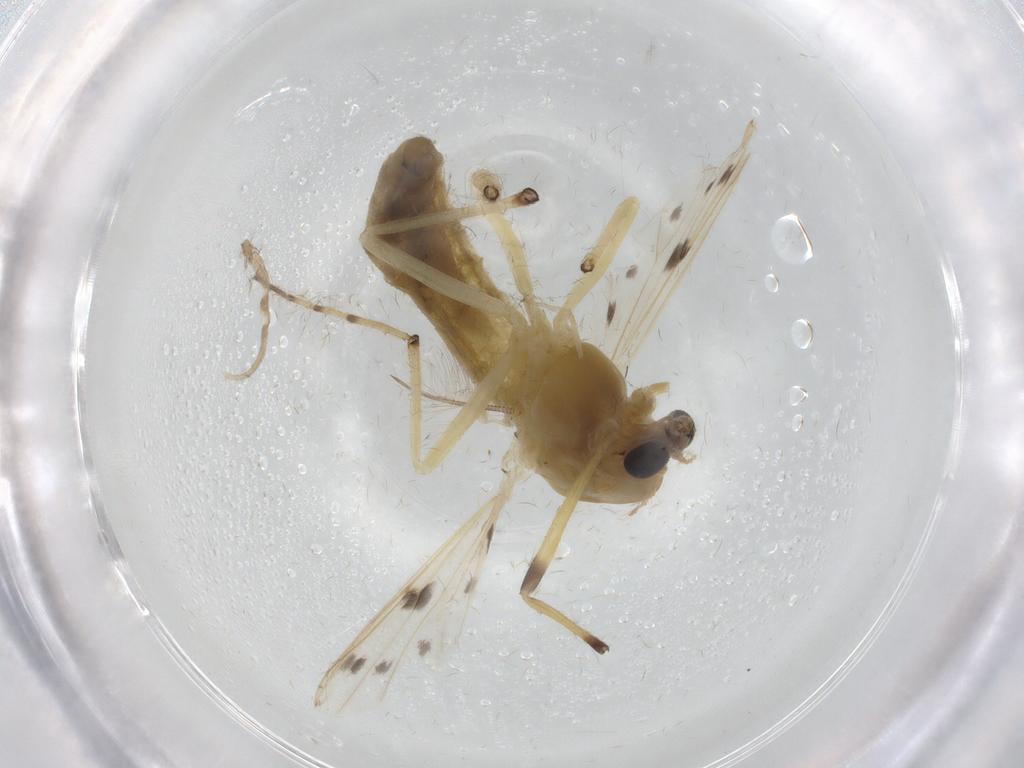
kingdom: Animalia
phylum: Arthropoda
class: Insecta
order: Diptera
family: Chironomidae
